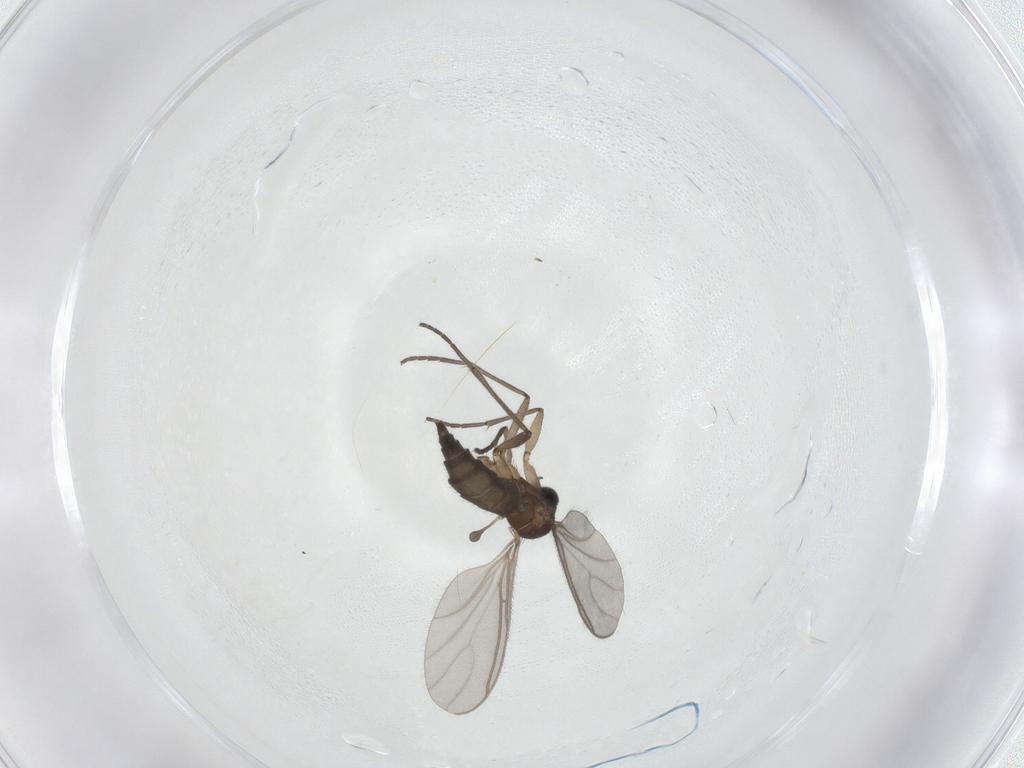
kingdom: Animalia
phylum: Arthropoda
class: Insecta
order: Diptera
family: Sciaridae
